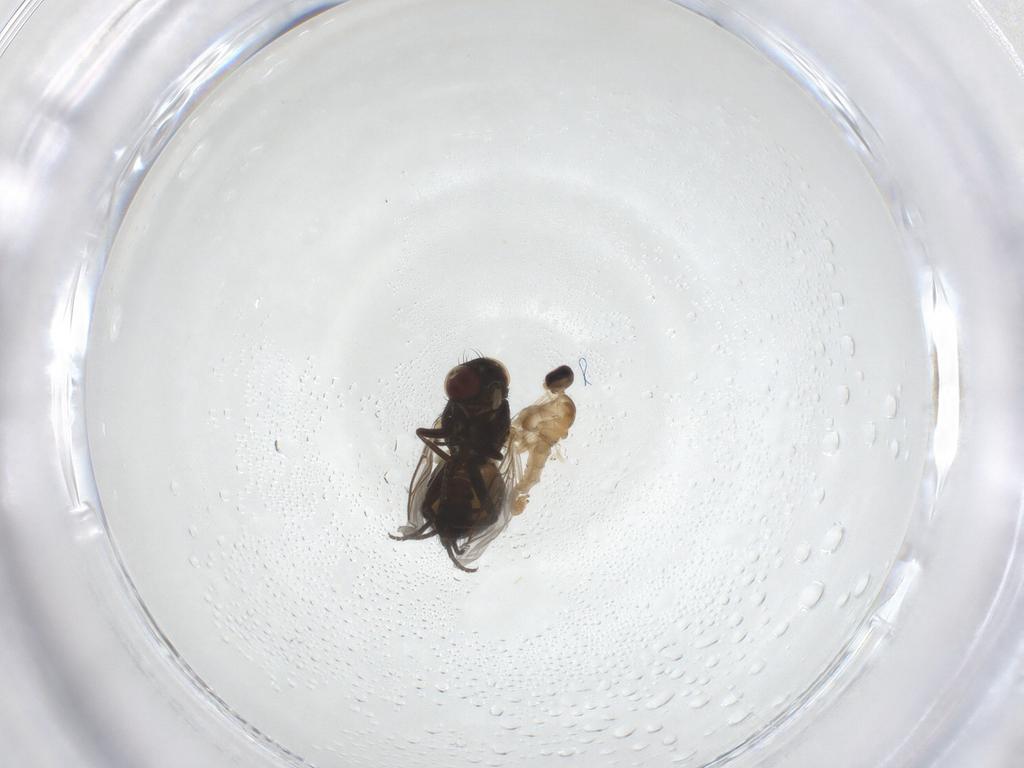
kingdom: Animalia
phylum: Arthropoda
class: Insecta
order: Diptera
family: Cecidomyiidae
